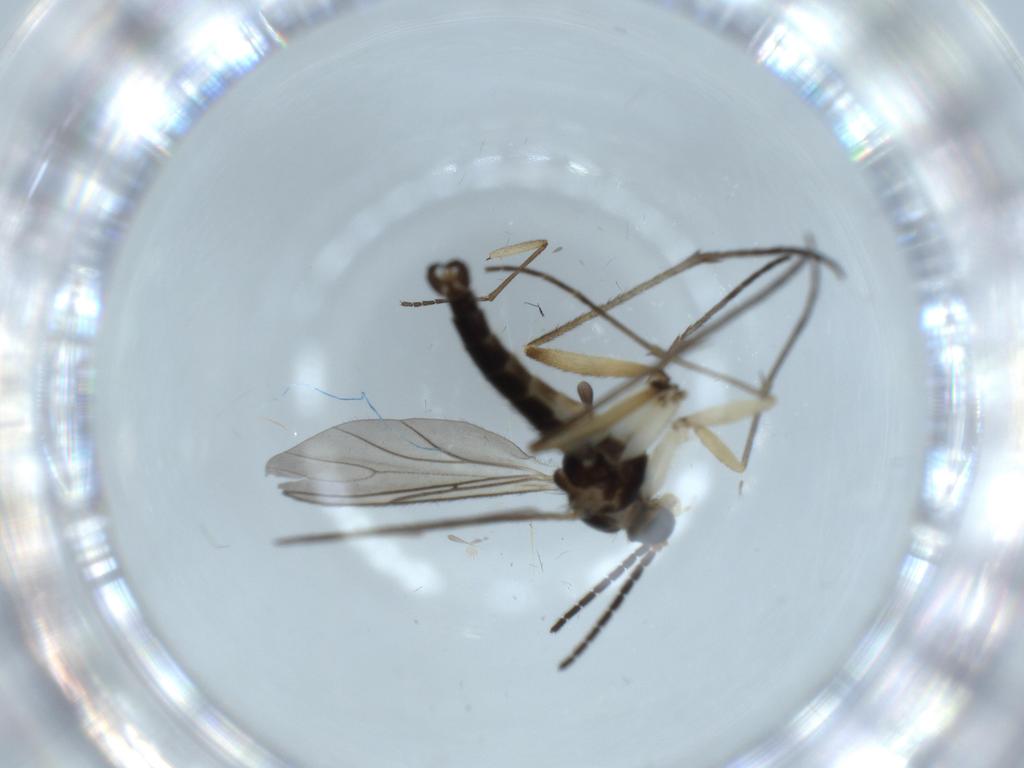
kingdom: Animalia
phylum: Arthropoda
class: Insecta
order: Diptera
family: Sciaridae
